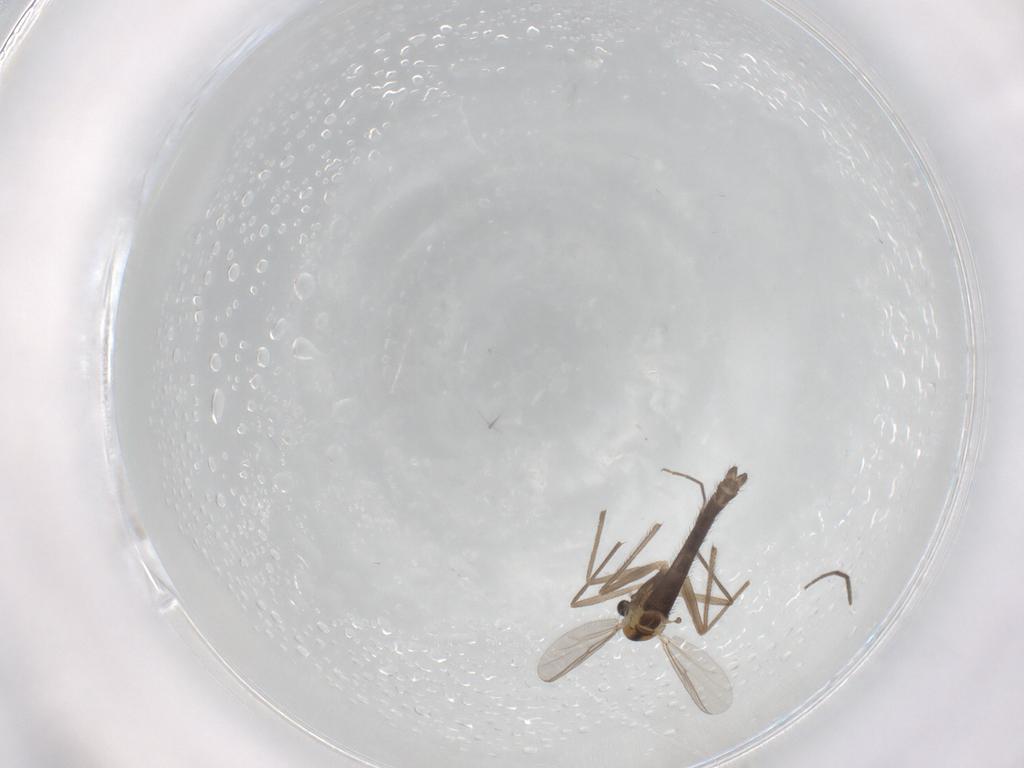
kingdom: Animalia
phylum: Arthropoda
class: Insecta
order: Diptera
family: Chironomidae
